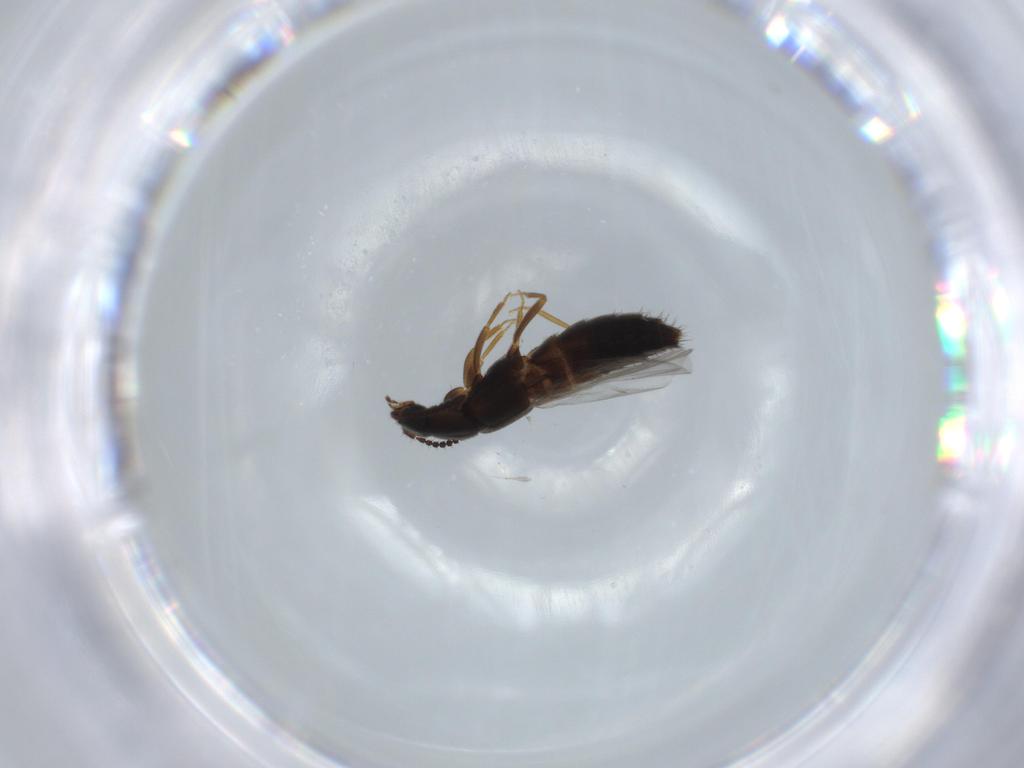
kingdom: Animalia
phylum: Arthropoda
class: Insecta
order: Coleoptera
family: Staphylinidae
